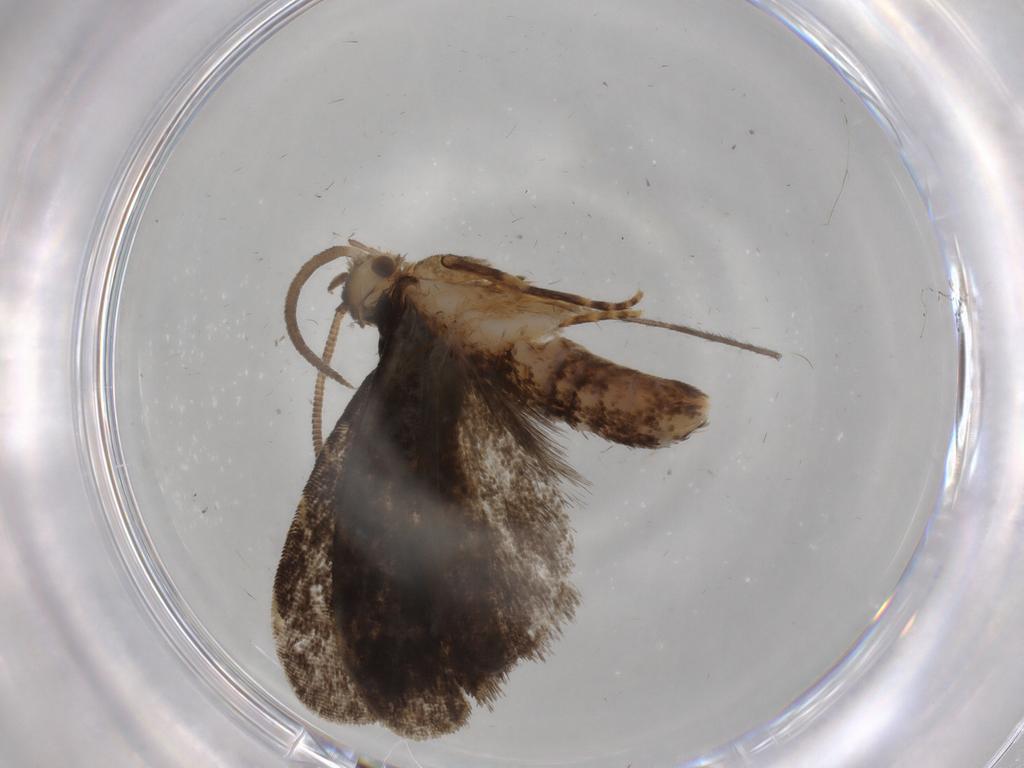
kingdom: Animalia
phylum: Arthropoda
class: Insecta
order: Lepidoptera
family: Dryadaulidae
